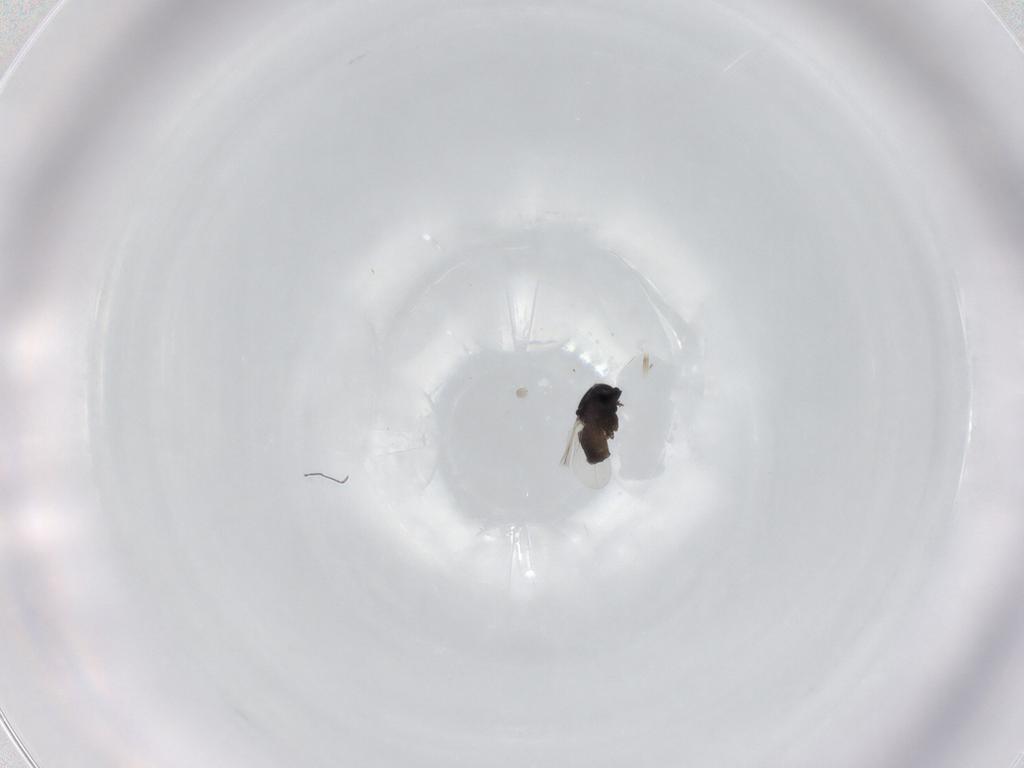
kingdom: Animalia
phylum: Arthropoda
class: Insecta
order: Diptera
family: Ceratopogonidae
